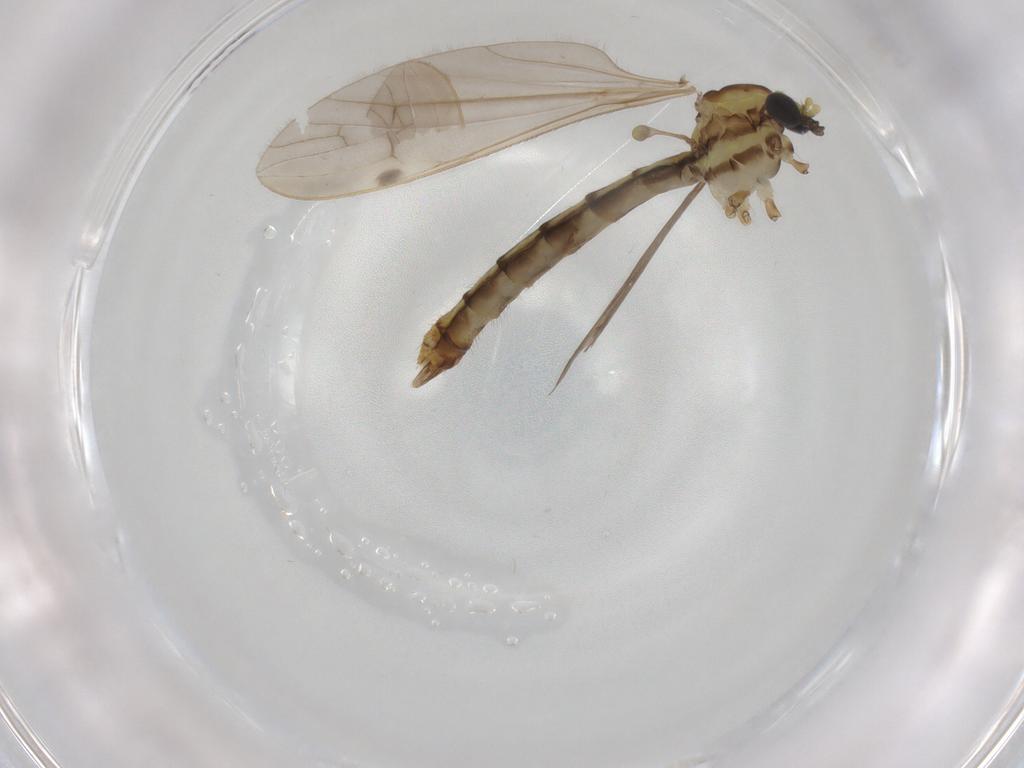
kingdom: Animalia
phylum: Arthropoda
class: Insecta
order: Diptera
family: Limoniidae
